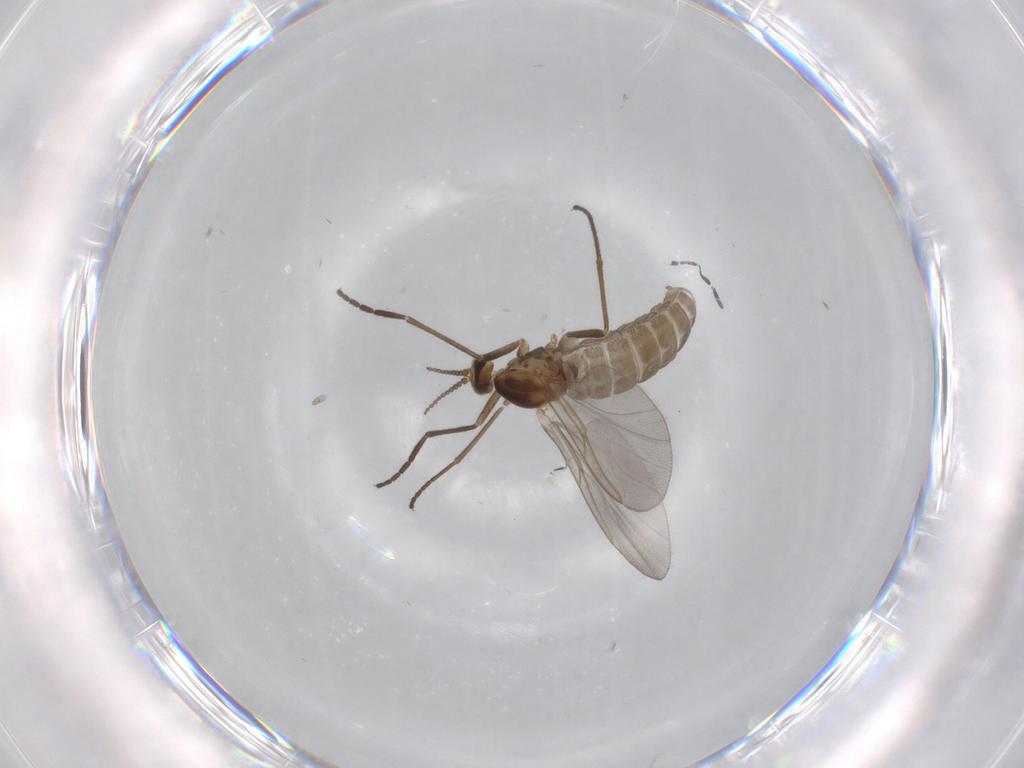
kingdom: Animalia
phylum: Arthropoda
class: Insecta
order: Diptera
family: Cecidomyiidae
